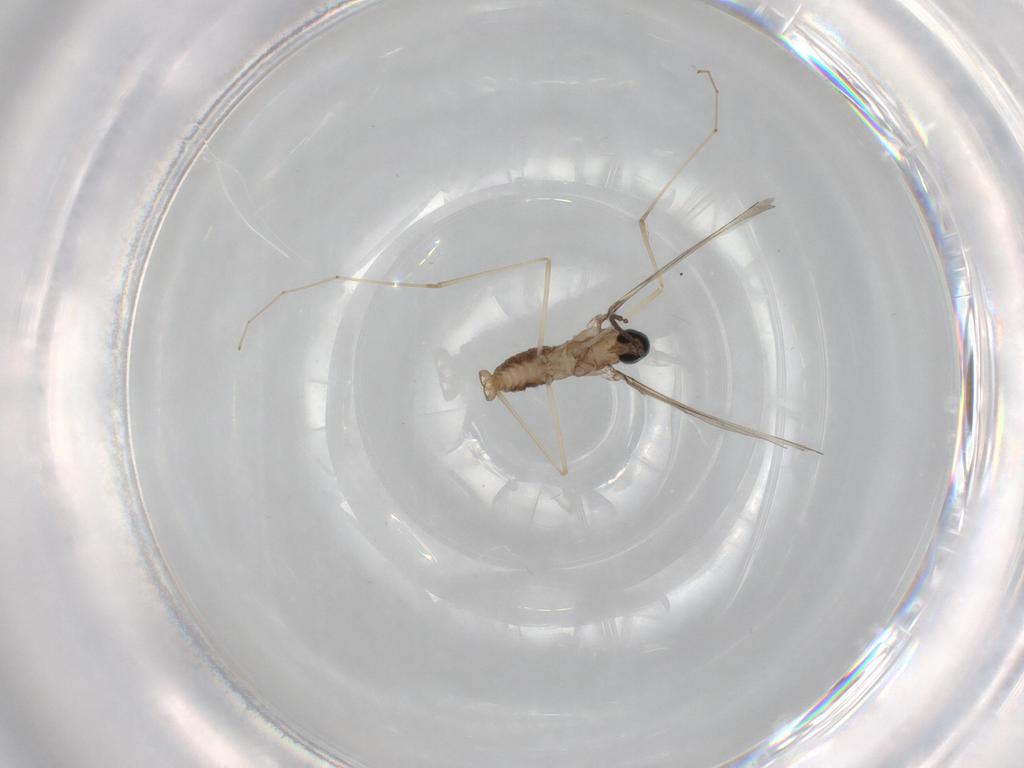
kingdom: Animalia
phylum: Arthropoda
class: Insecta
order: Diptera
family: Cecidomyiidae
